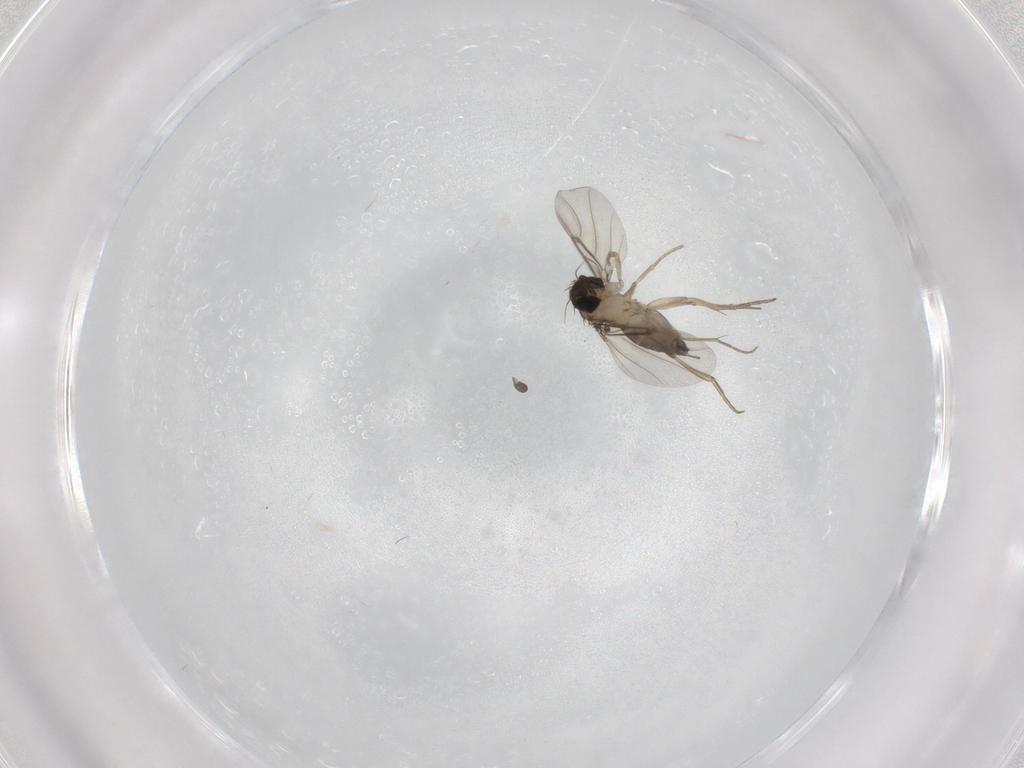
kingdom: Animalia
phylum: Arthropoda
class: Insecta
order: Diptera
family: Phoridae
